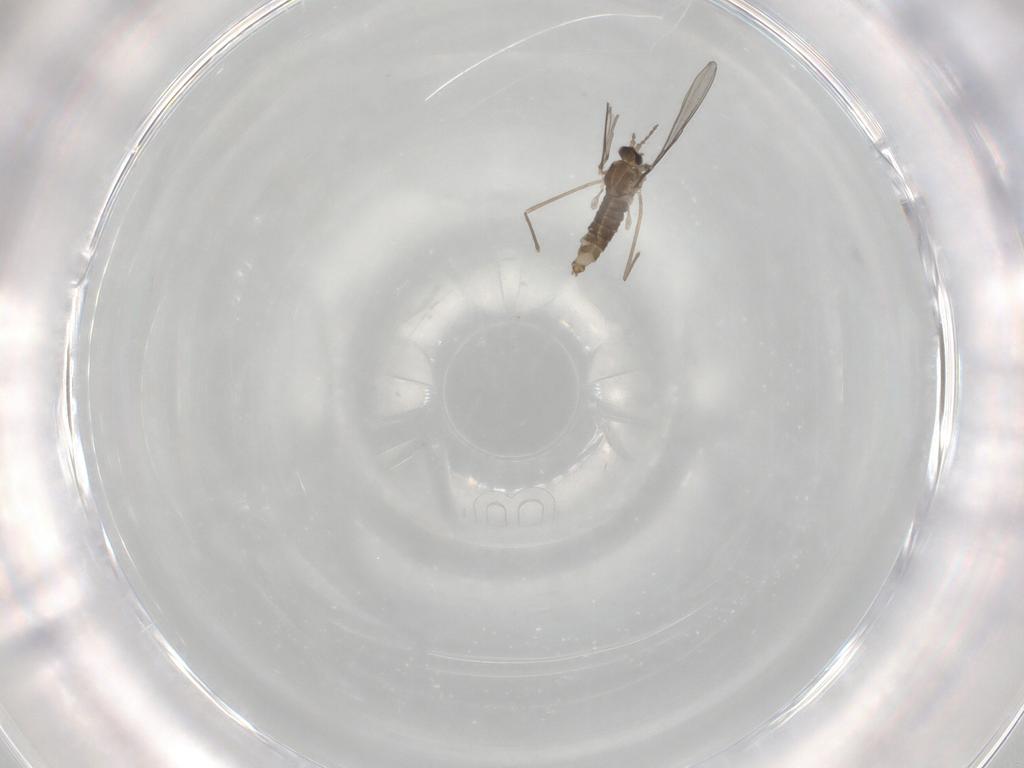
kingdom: Animalia
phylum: Arthropoda
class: Insecta
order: Diptera
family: Cecidomyiidae
